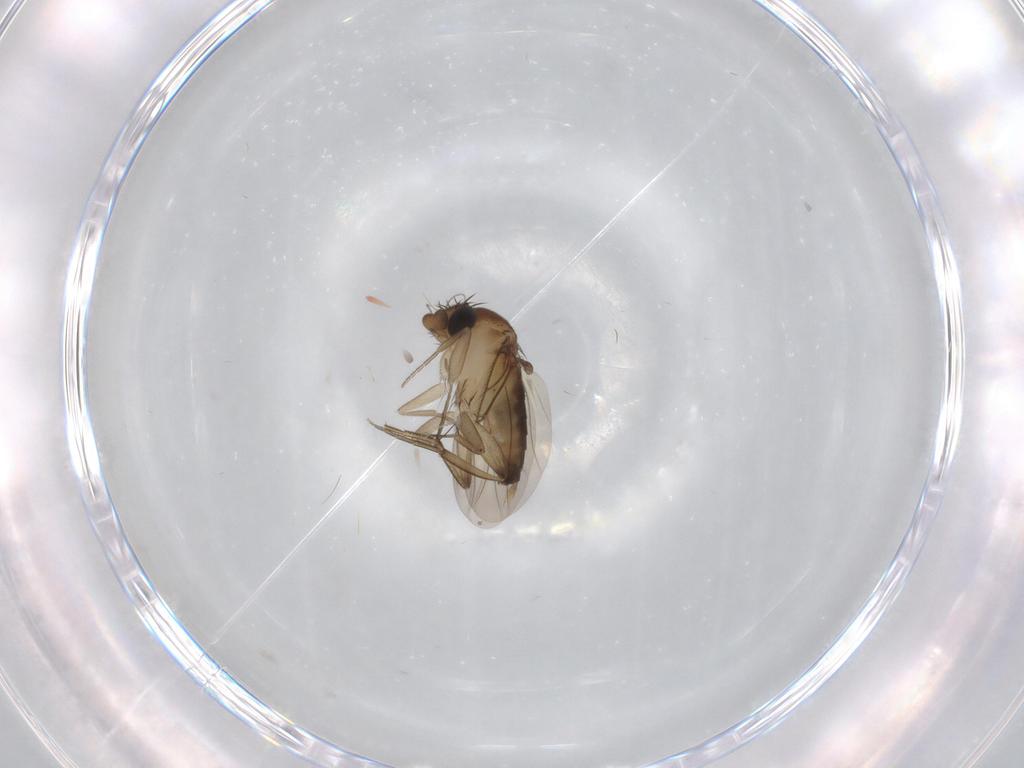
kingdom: Animalia
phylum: Arthropoda
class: Insecta
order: Diptera
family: Phoridae
